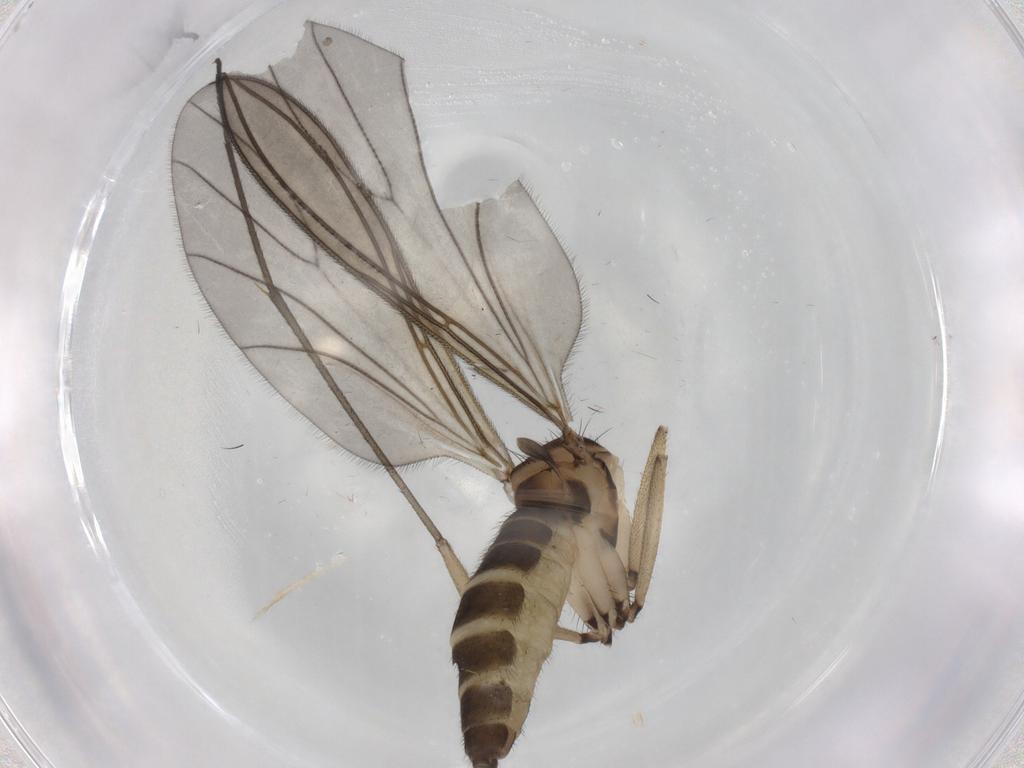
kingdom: Animalia
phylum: Arthropoda
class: Insecta
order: Diptera
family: Sciaridae
